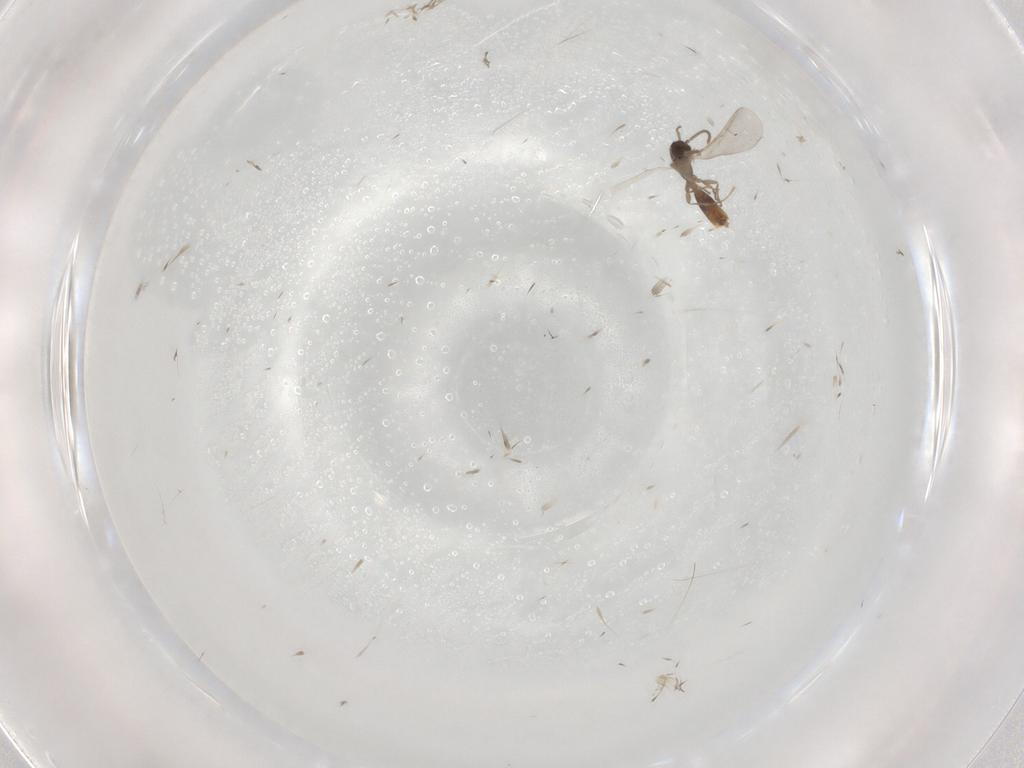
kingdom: Animalia
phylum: Arthropoda
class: Insecta
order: Hymenoptera
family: Formicidae
